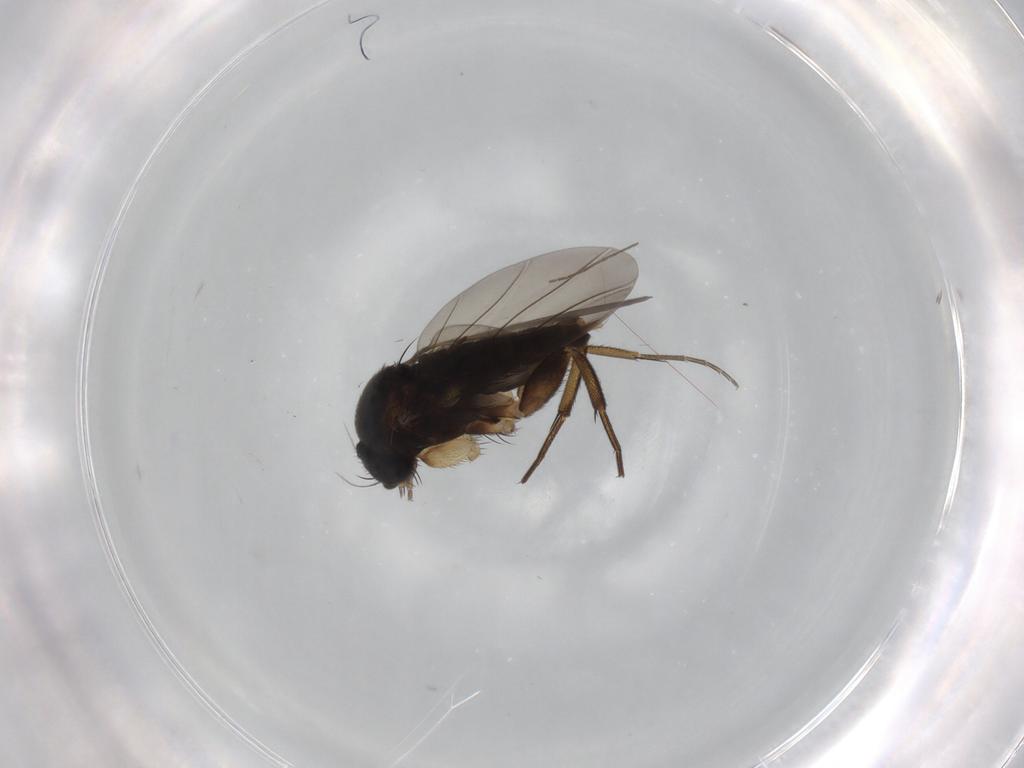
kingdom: Animalia
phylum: Arthropoda
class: Insecta
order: Diptera
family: Phoridae
